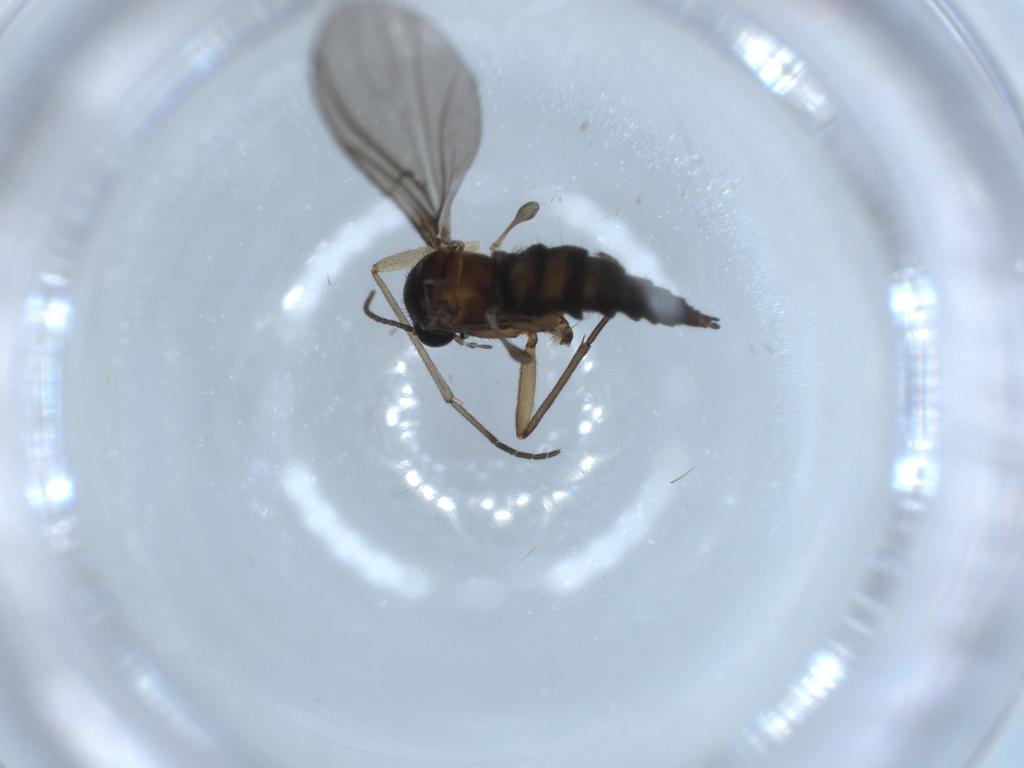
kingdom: Animalia
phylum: Arthropoda
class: Insecta
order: Diptera
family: Sciaridae
